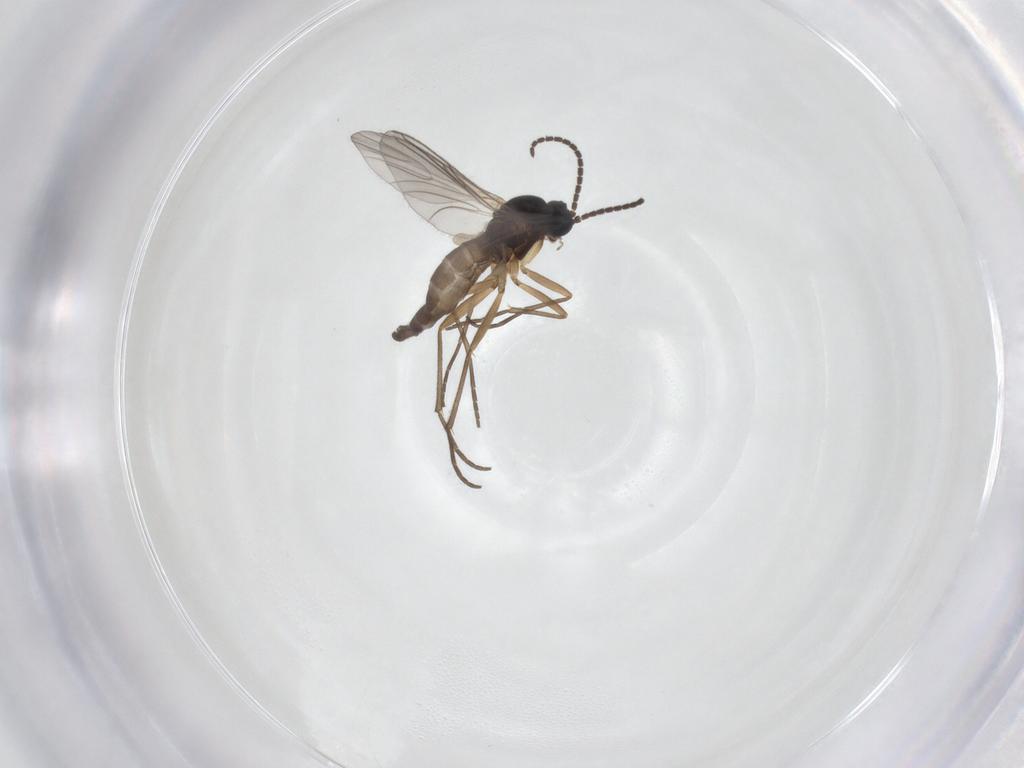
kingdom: Animalia
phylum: Arthropoda
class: Insecta
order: Diptera
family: Sciaridae
